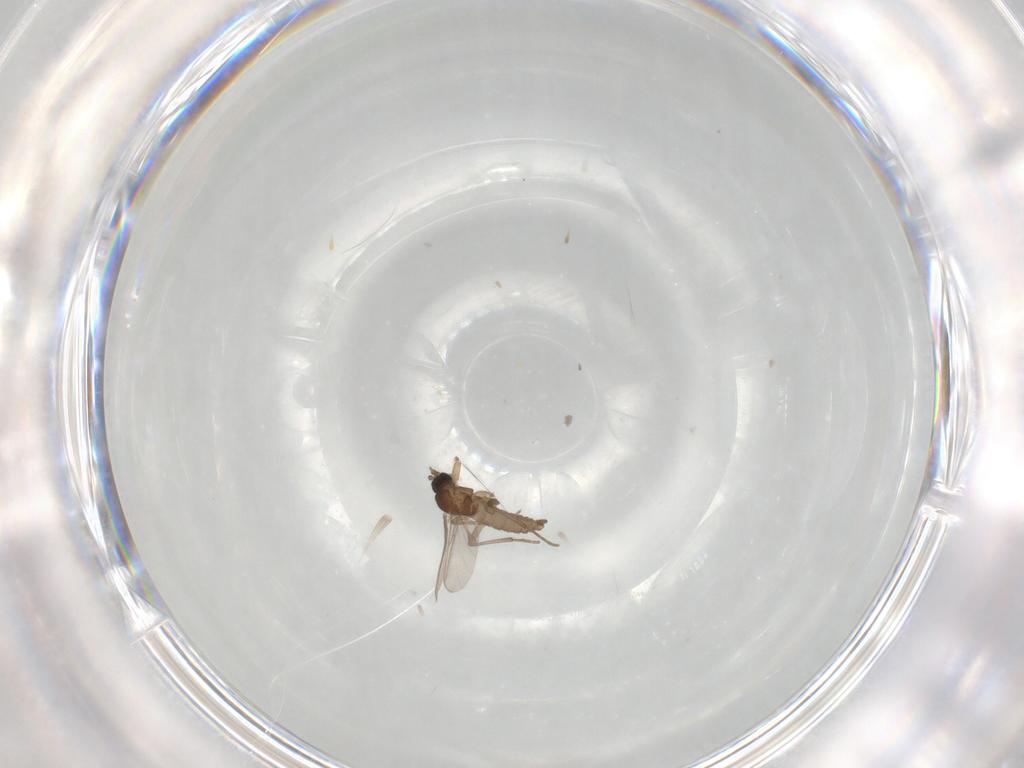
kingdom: Animalia
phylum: Arthropoda
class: Insecta
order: Diptera
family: Sciaridae
